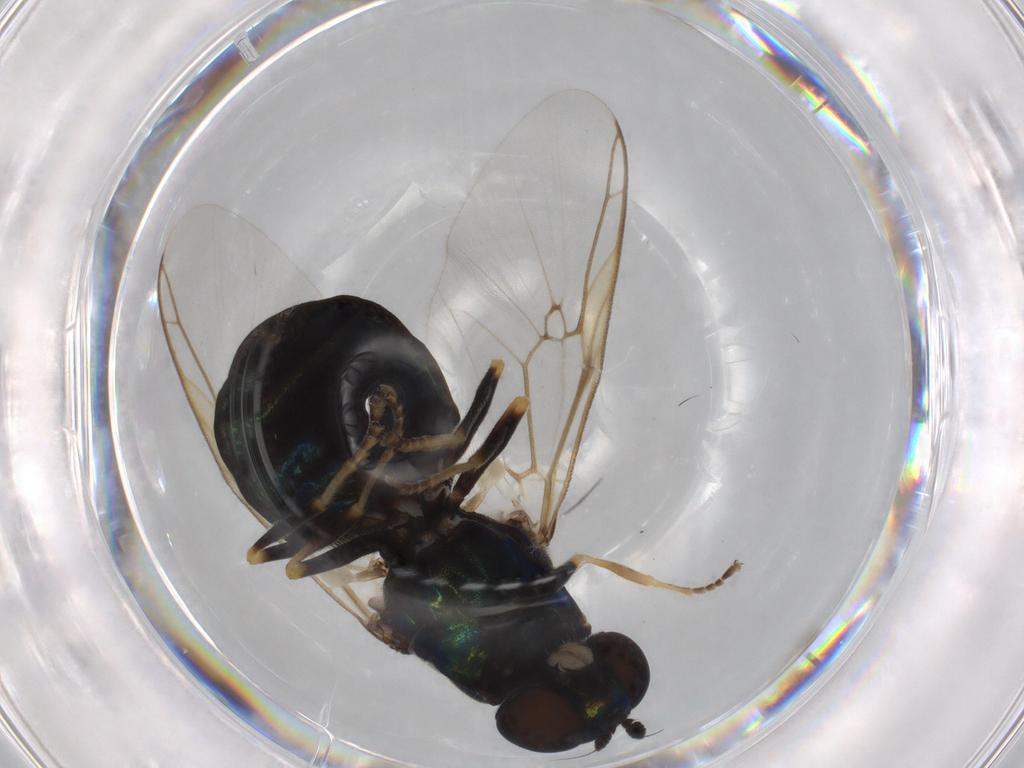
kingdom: Animalia
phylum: Arthropoda
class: Insecta
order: Diptera
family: Stratiomyidae
